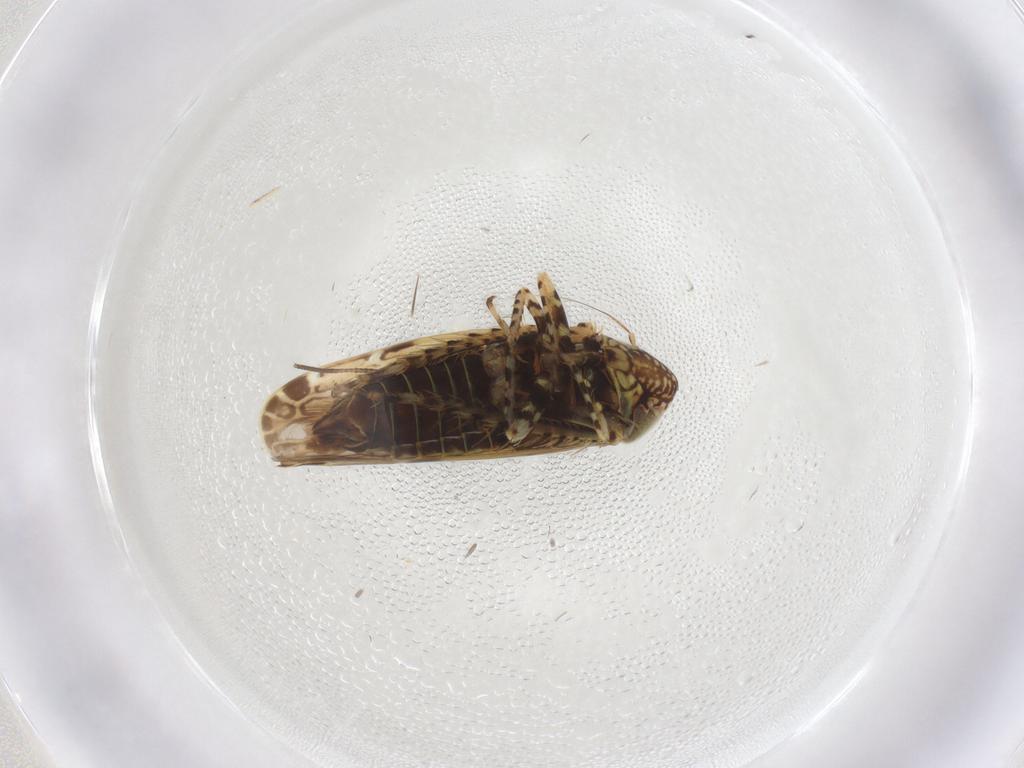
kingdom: Animalia
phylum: Arthropoda
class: Insecta
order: Hemiptera
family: Cicadellidae
